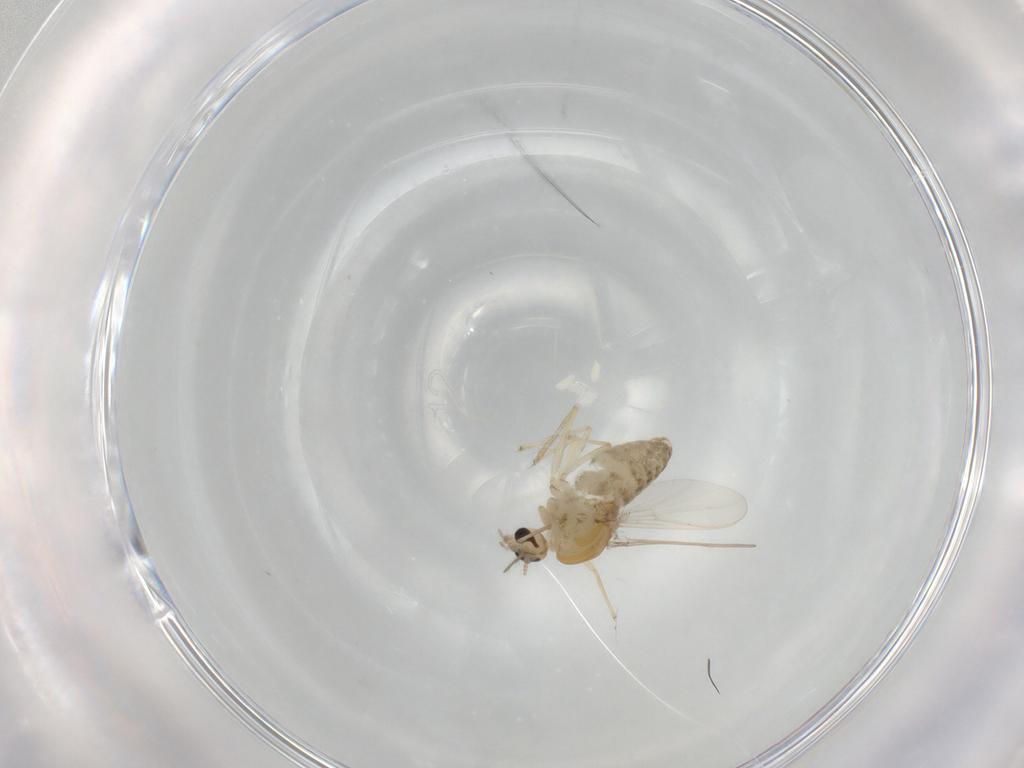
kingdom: Animalia
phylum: Arthropoda
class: Insecta
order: Diptera
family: Chironomidae
